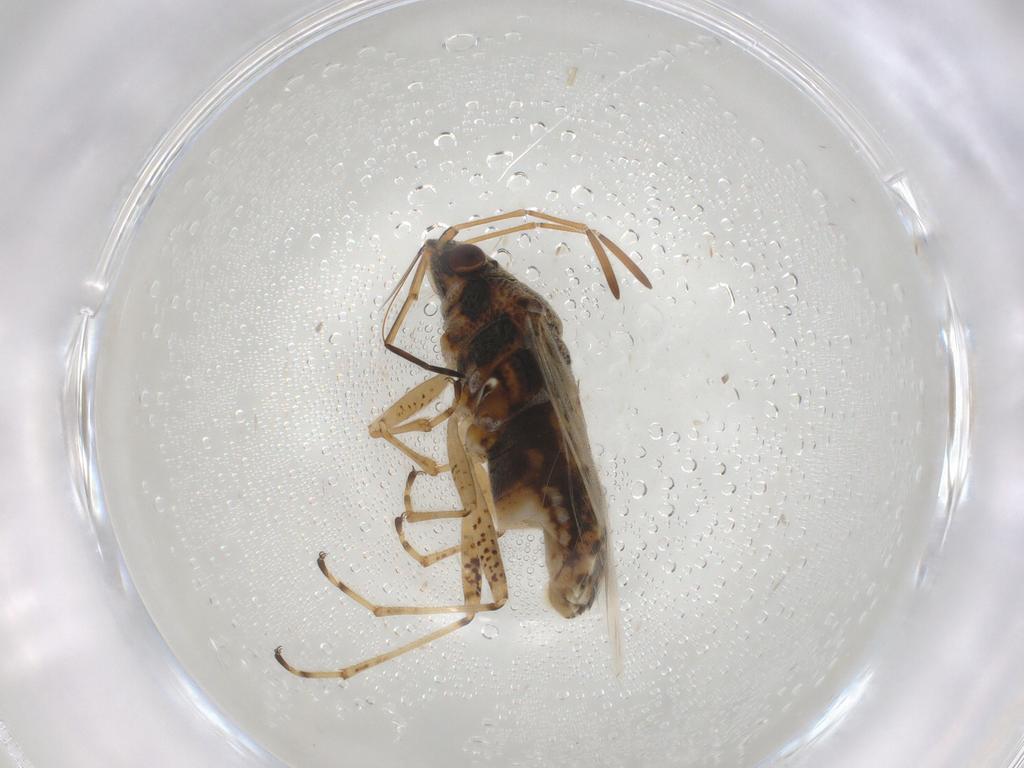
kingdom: Animalia
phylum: Arthropoda
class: Insecta
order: Hemiptera
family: Lygaeidae
